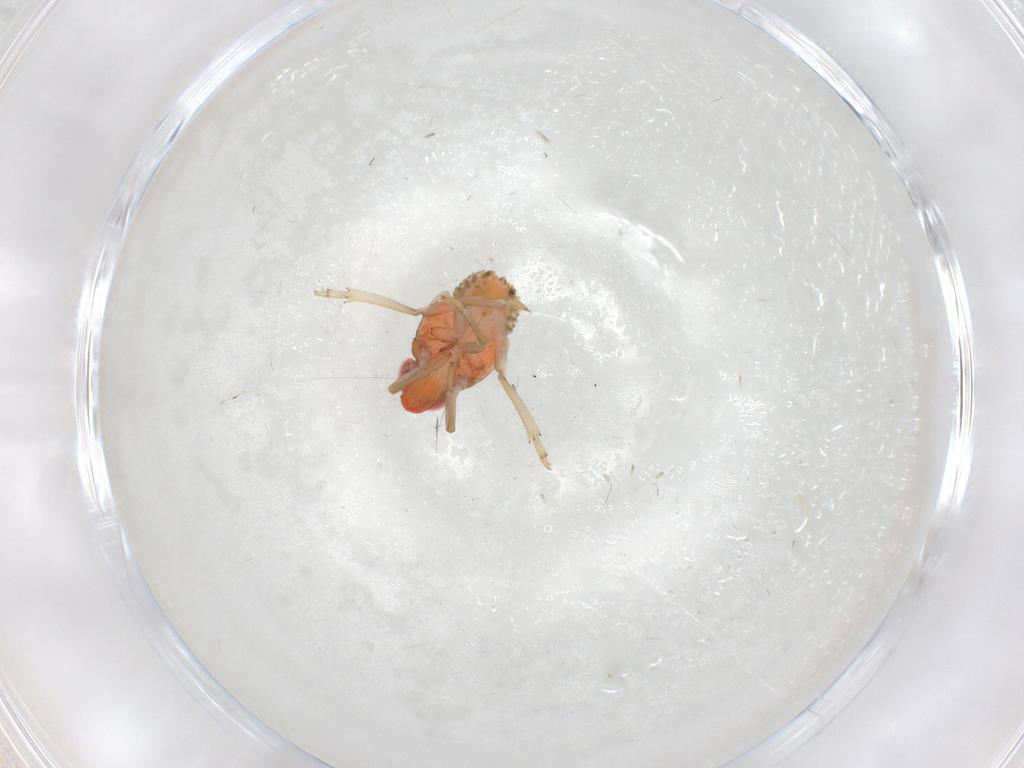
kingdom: Animalia
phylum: Arthropoda
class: Insecta
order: Hemiptera
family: Issidae
